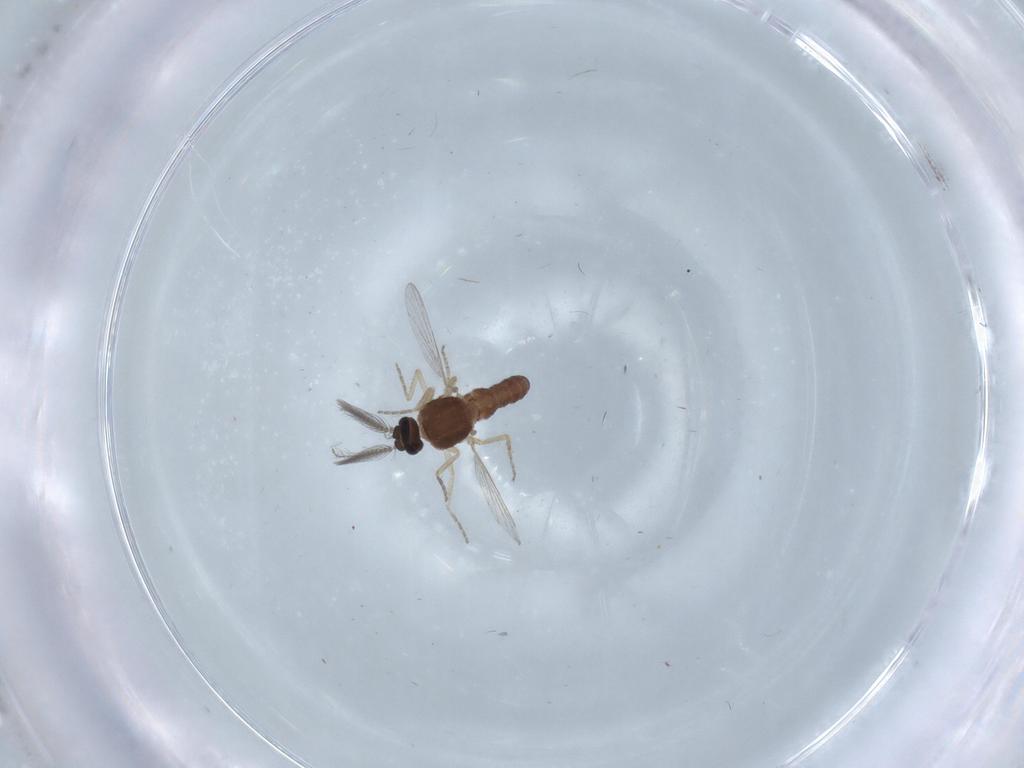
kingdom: Animalia
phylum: Arthropoda
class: Insecta
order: Diptera
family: Ceratopogonidae
